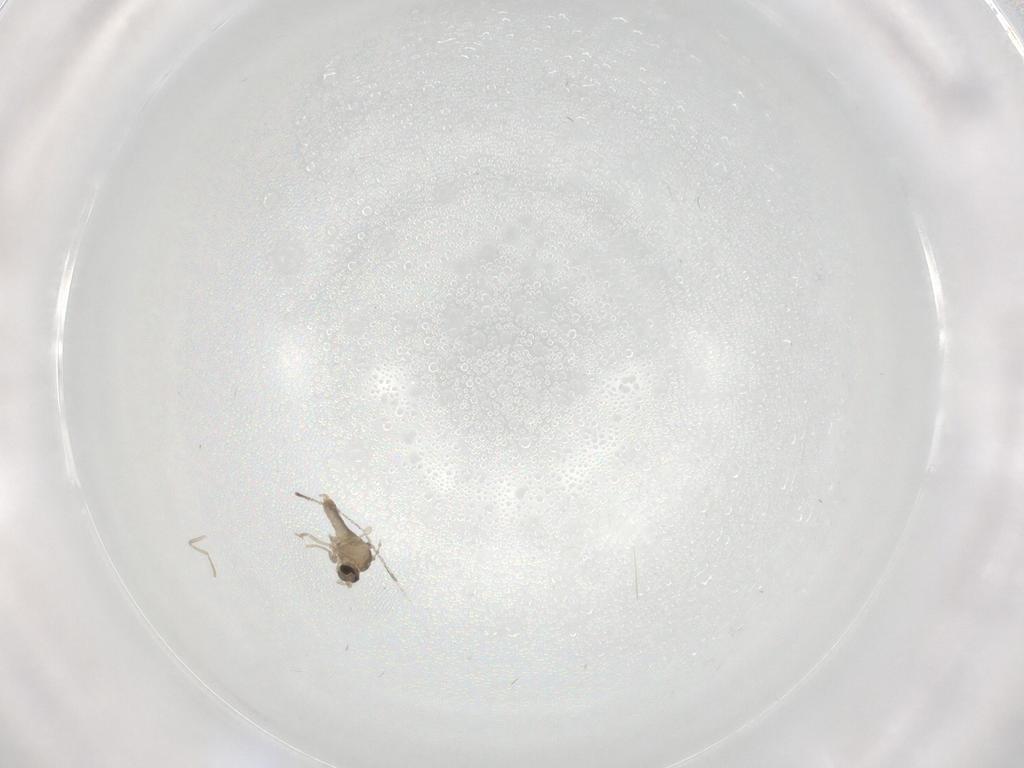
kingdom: Animalia
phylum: Arthropoda
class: Insecta
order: Diptera
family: Cecidomyiidae
